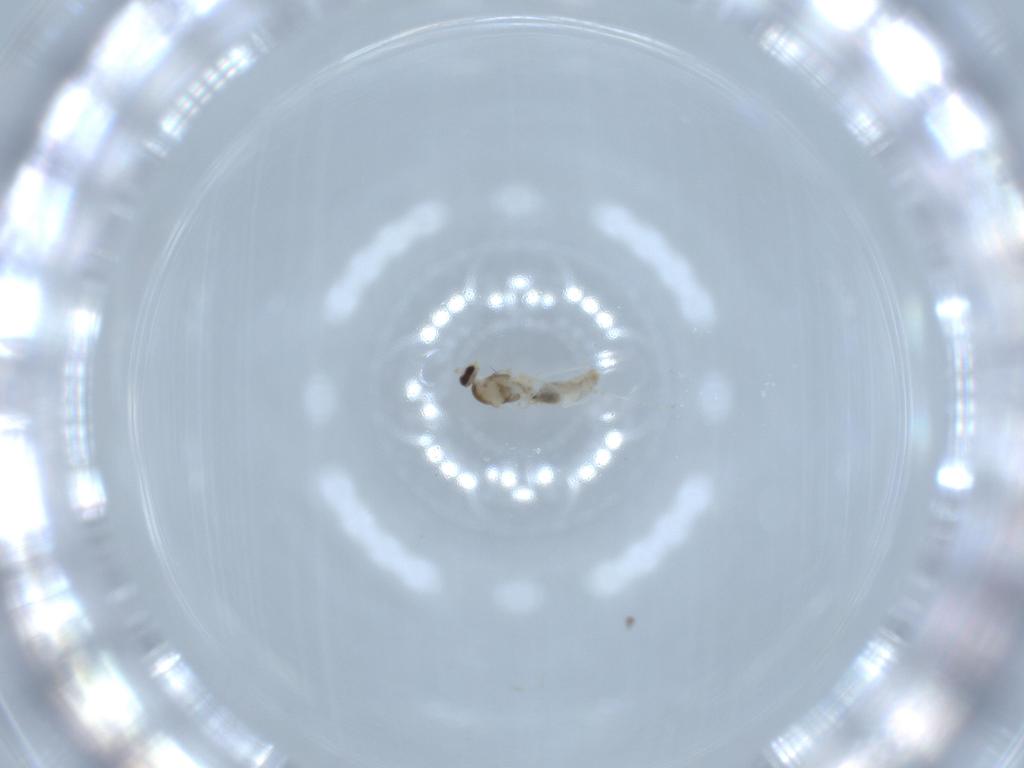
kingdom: Animalia
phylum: Arthropoda
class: Insecta
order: Diptera
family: Cecidomyiidae
